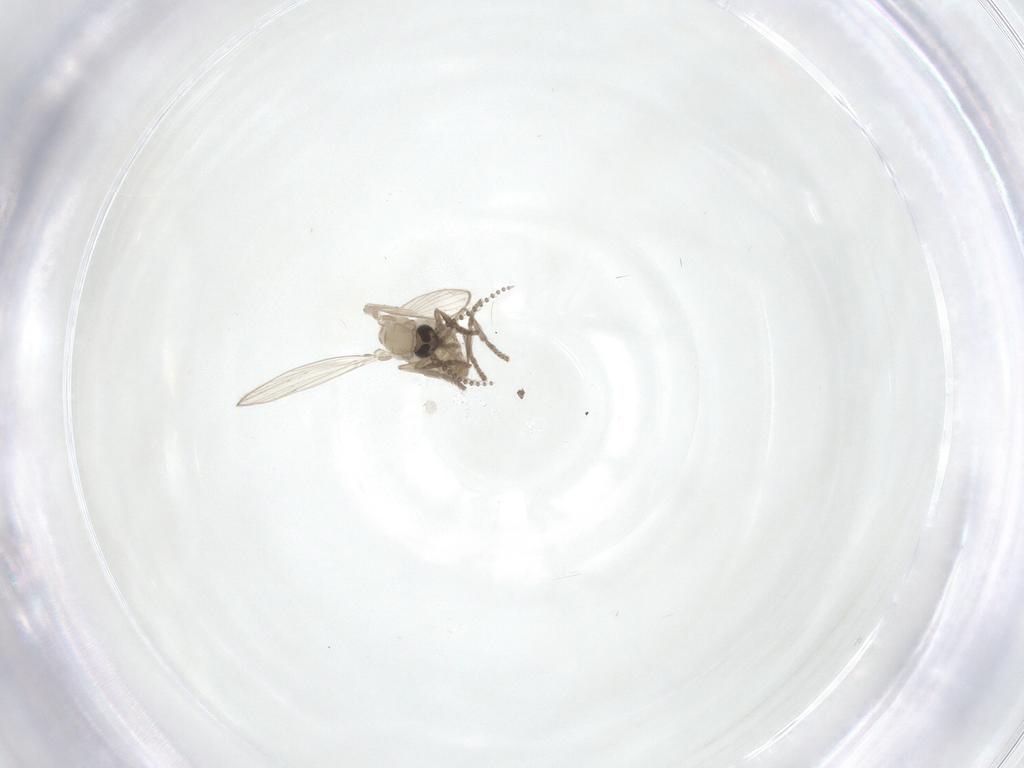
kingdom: Animalia
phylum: Arthropoda
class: Insecta
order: Diptera
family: Psychodidae
